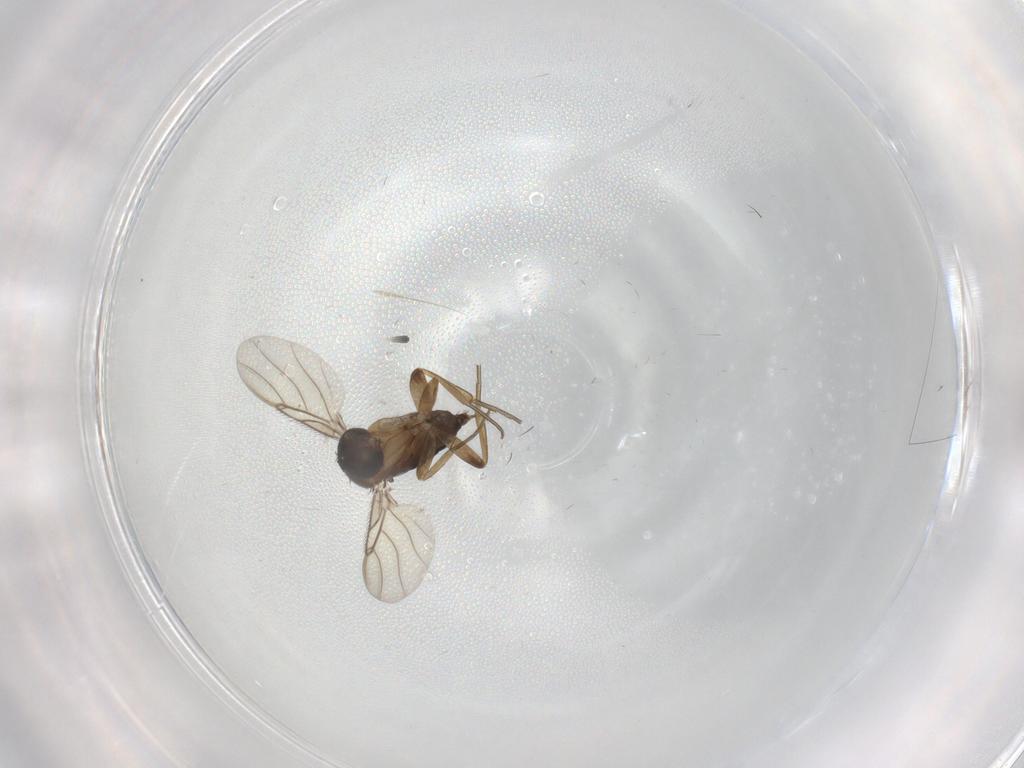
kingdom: Animalia
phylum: Arthropoda
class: Insecta
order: Diptera
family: Phoridae
